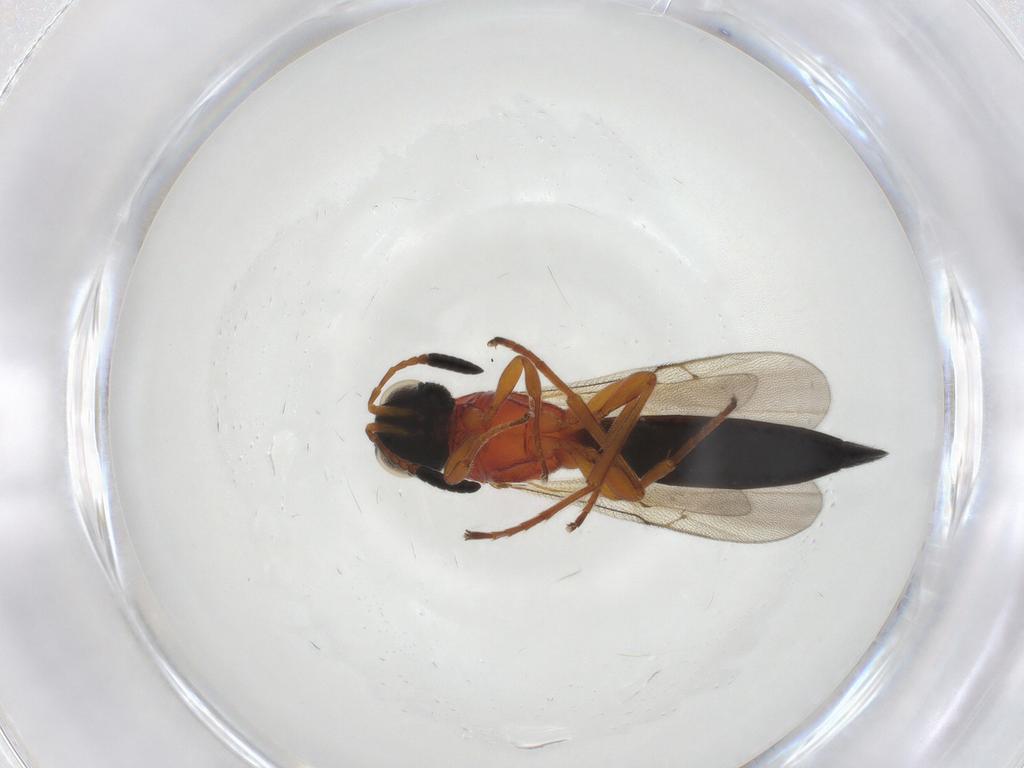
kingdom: Animalia
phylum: Arthropoda
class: Insecta
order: Hymenoptera
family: Scelionidae
